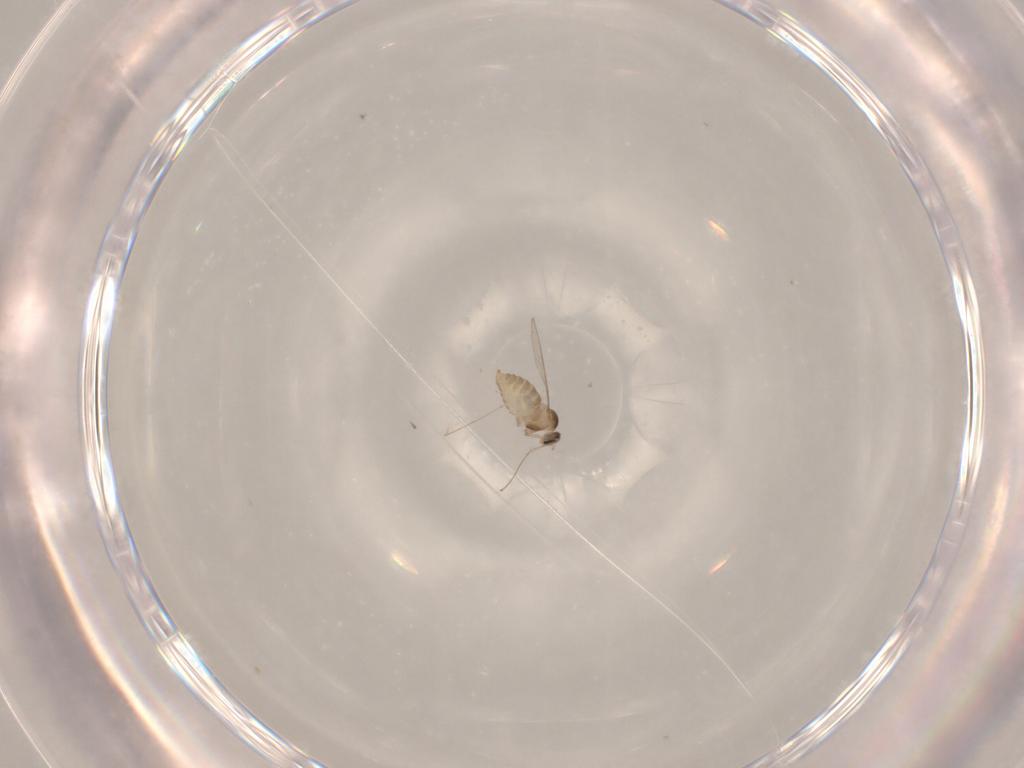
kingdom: Animalia
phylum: Arthropoda
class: Insecta
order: Diptera
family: Cecidomyiidae
